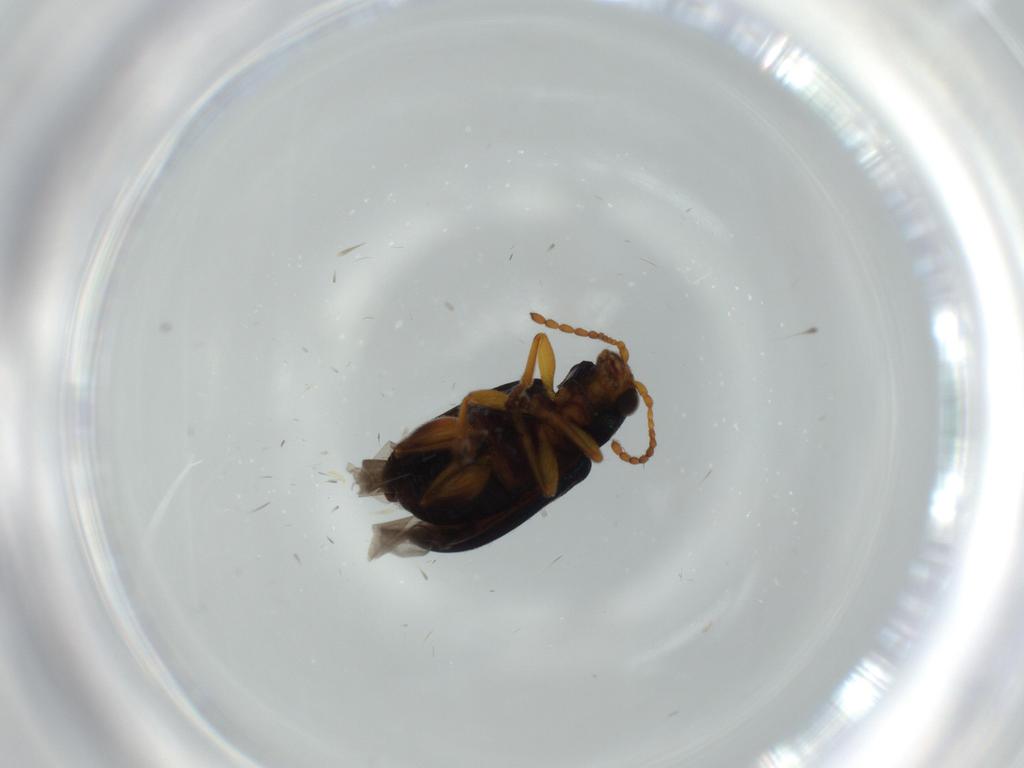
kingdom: Animalia
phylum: Arthropoda
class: Insecta
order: Coleoptera
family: Chrysomelidae
